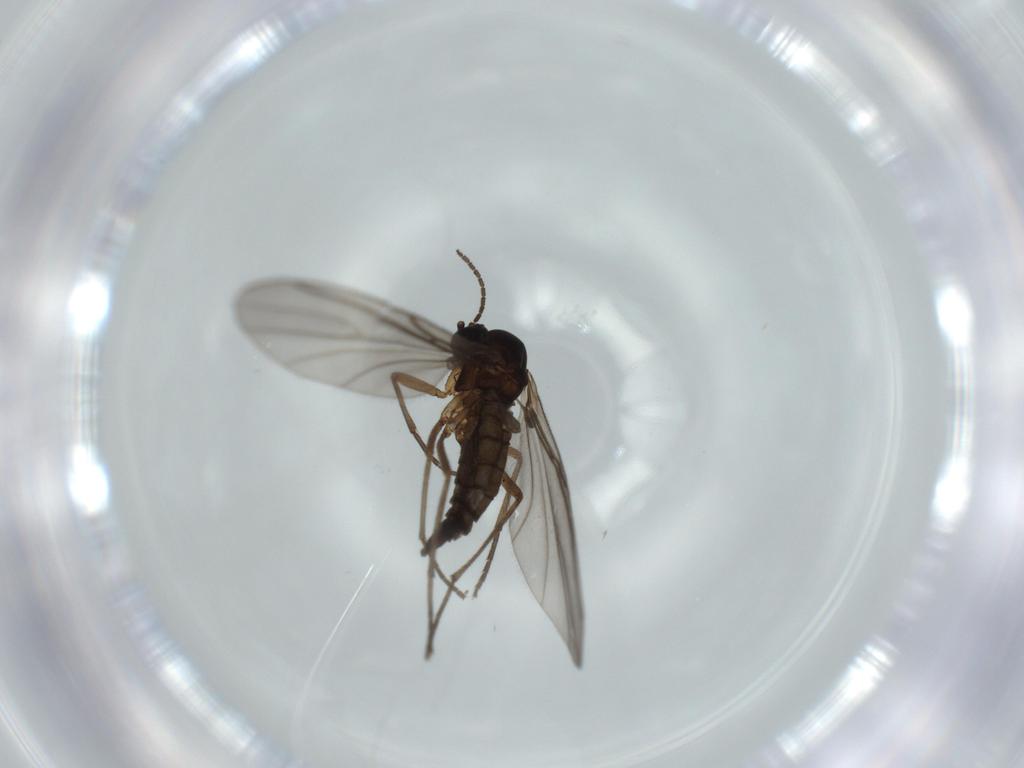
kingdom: Animalia
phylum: Arthropoda
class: Insecta
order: Diptera
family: Sciaridae
